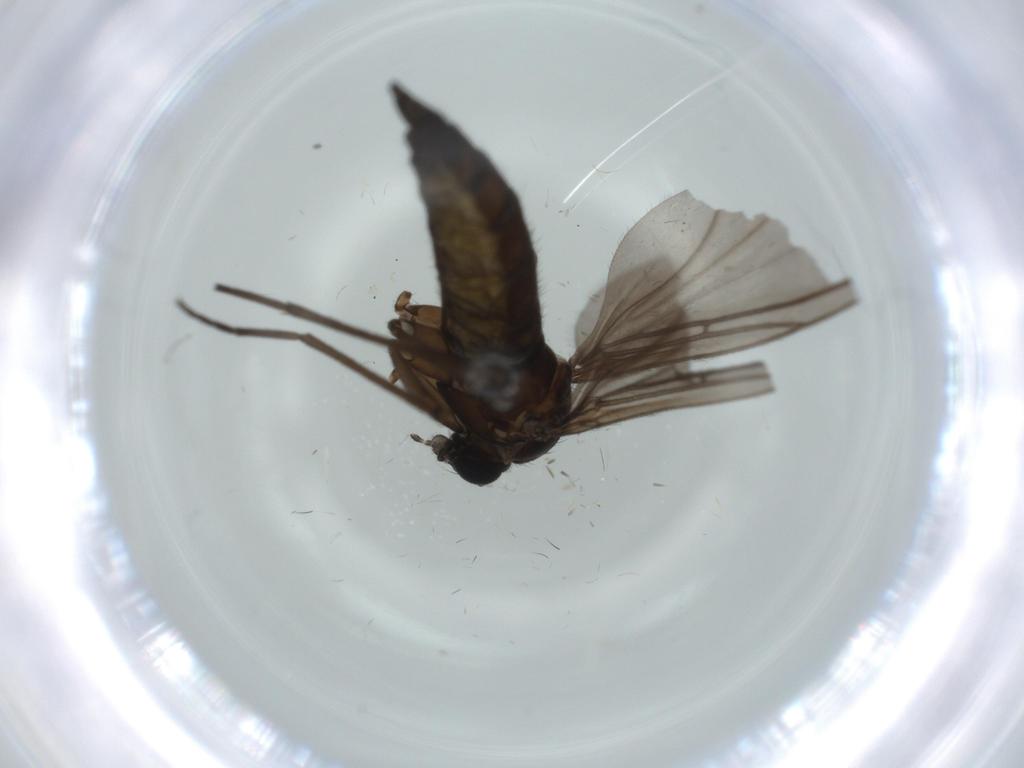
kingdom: Animalia
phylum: Arthropoda
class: Insecta
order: Diptera
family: Sciaridae
